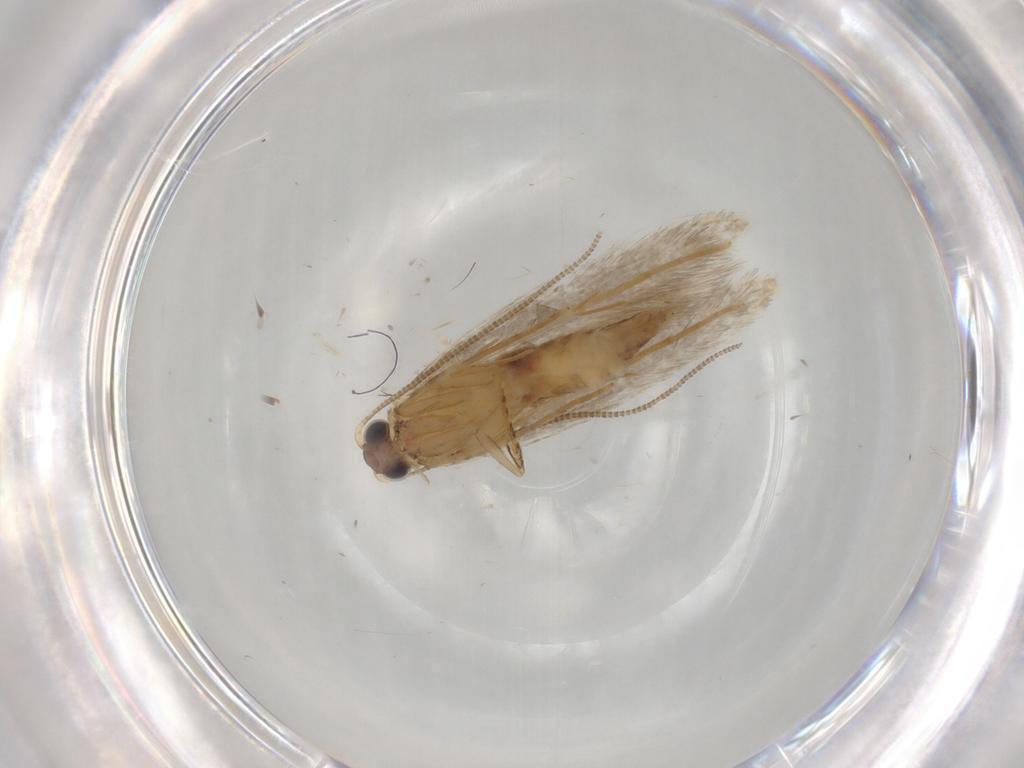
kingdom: Animalia
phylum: Arthropoda
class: Insecta
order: Lepidoptera
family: Tineidae
